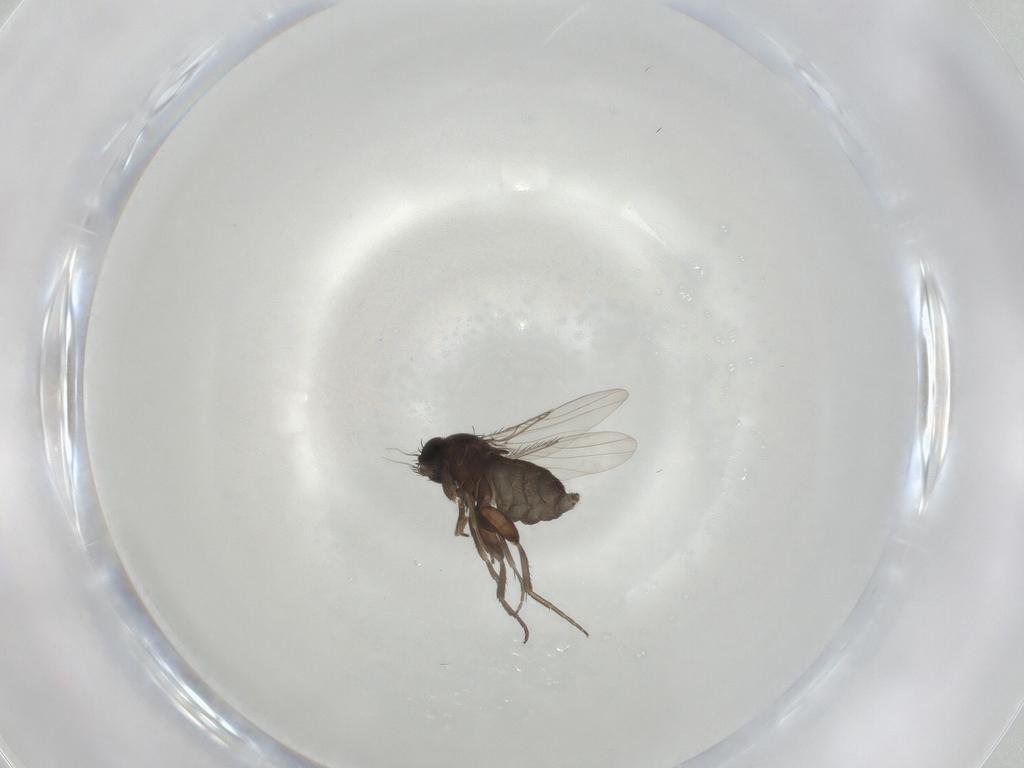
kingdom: Animalia
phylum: Arthropoda
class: Insecta
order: Diptera
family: Phoridae
